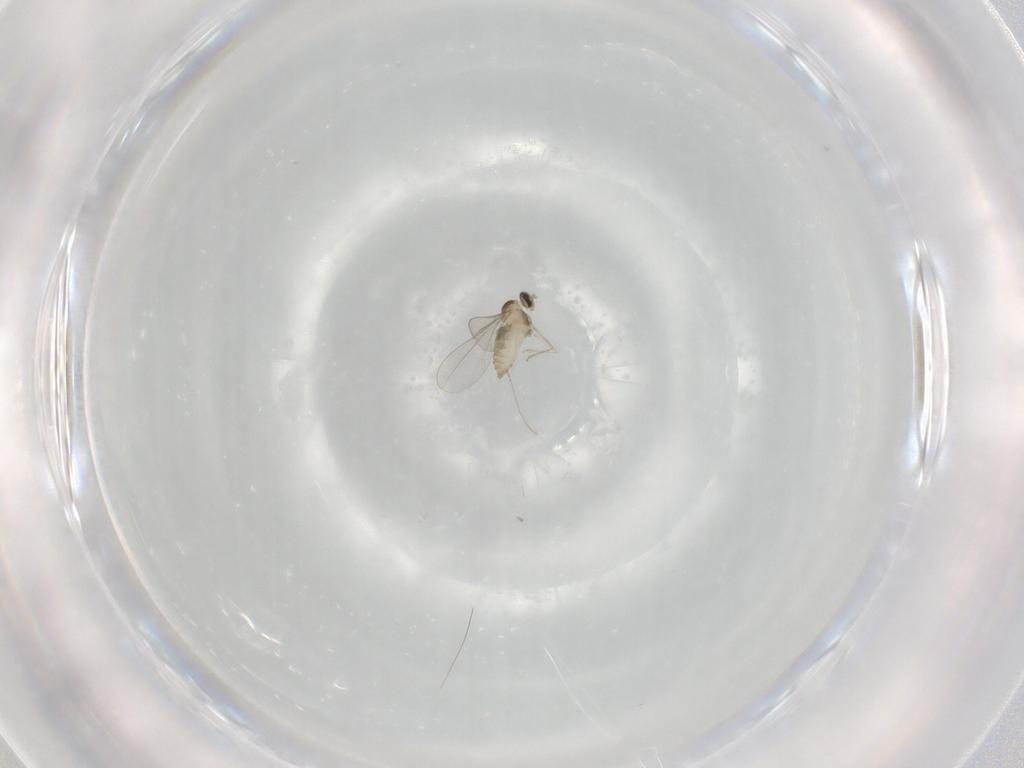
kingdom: Animalia
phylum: Arthropoda
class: Insecta
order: Diptera
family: Cecidomyiidae
